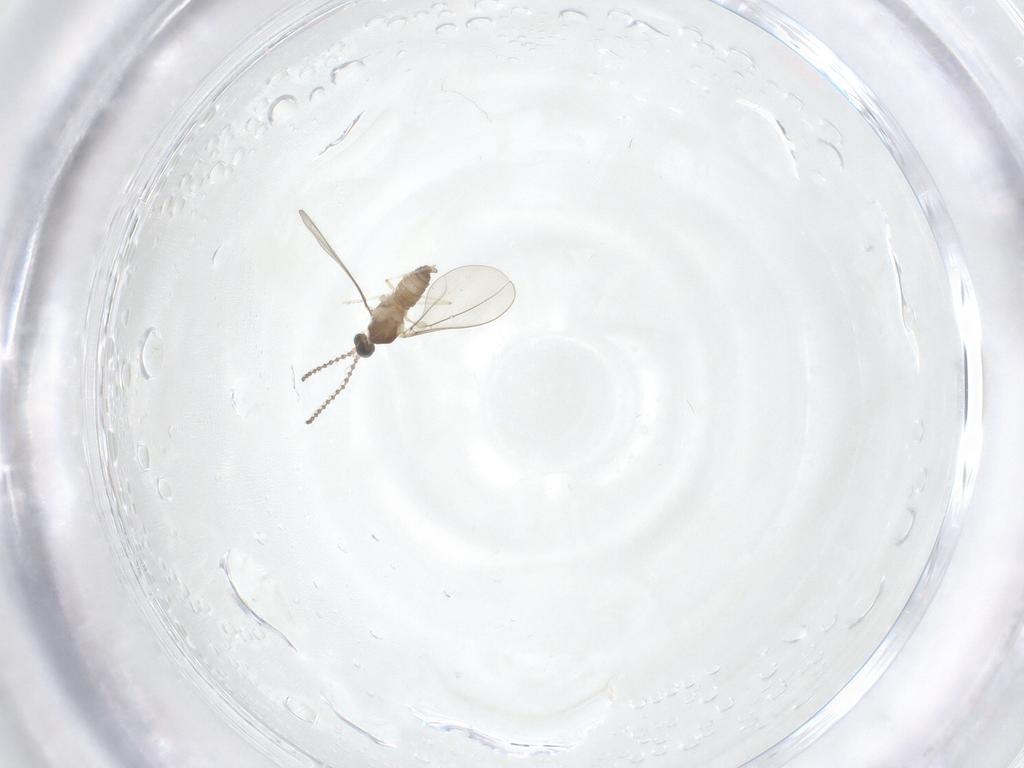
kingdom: Animalia
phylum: Arthropoda
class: Insecta
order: Diptera
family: Cecidomyiidae
